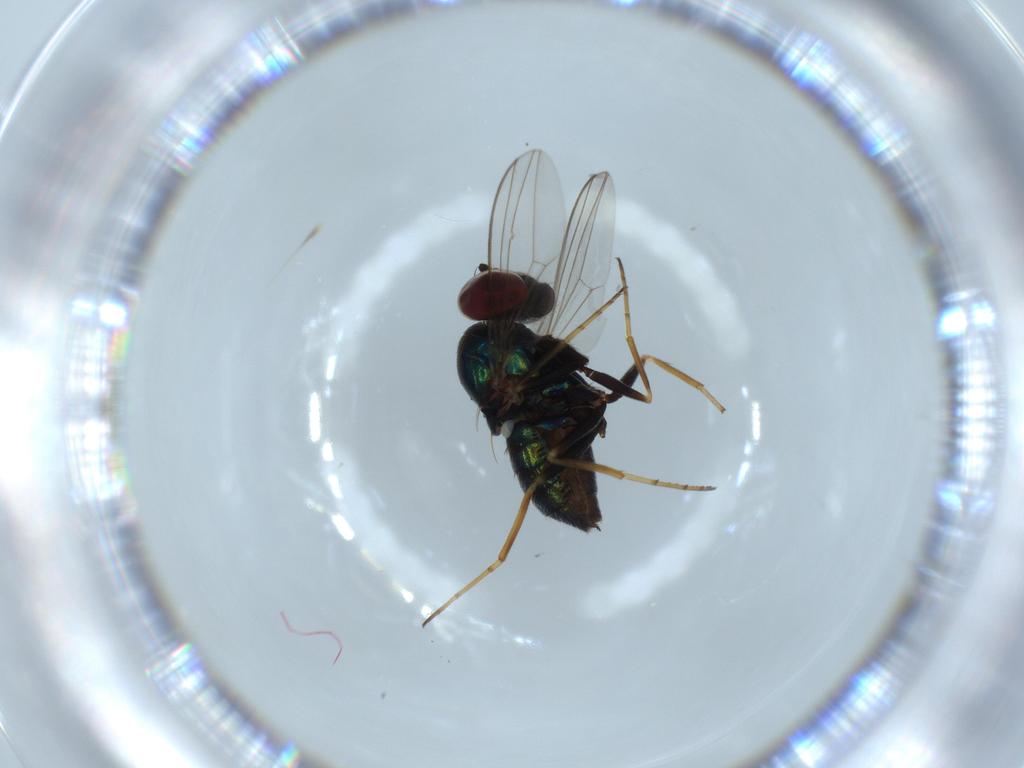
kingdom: Animalia
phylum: Arthropoda
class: Insecta
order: Diptera
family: Dolichopodidae
